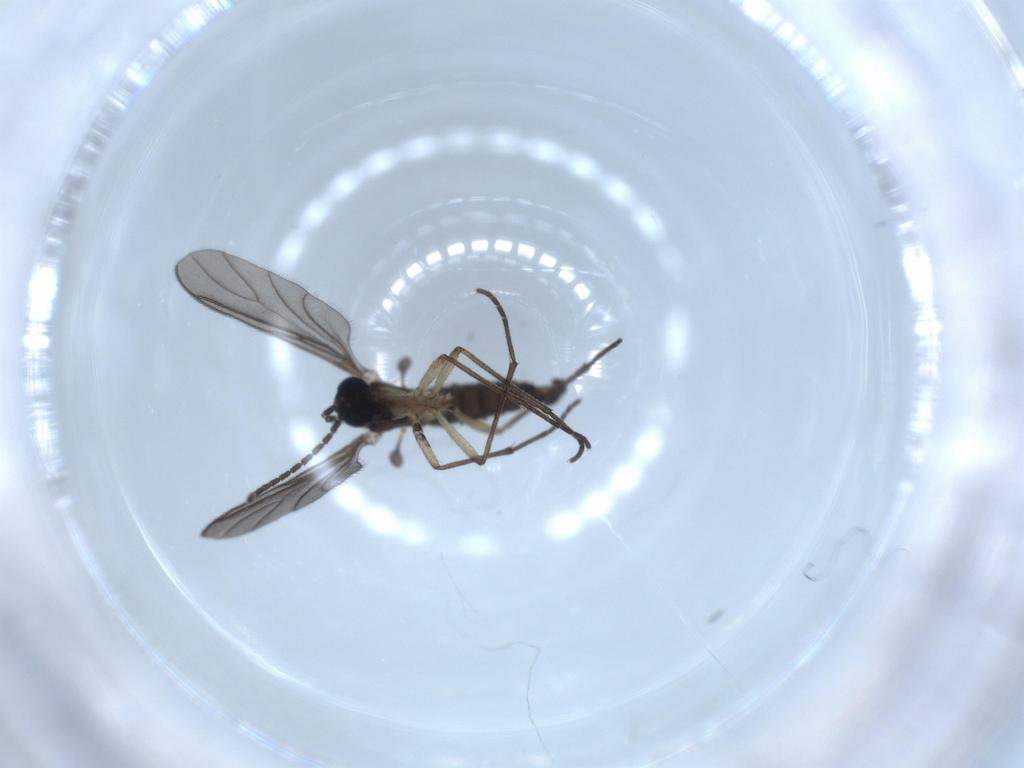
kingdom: Animalia
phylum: Arthropoda
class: Insecta
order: Diptera
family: Sciaridae
